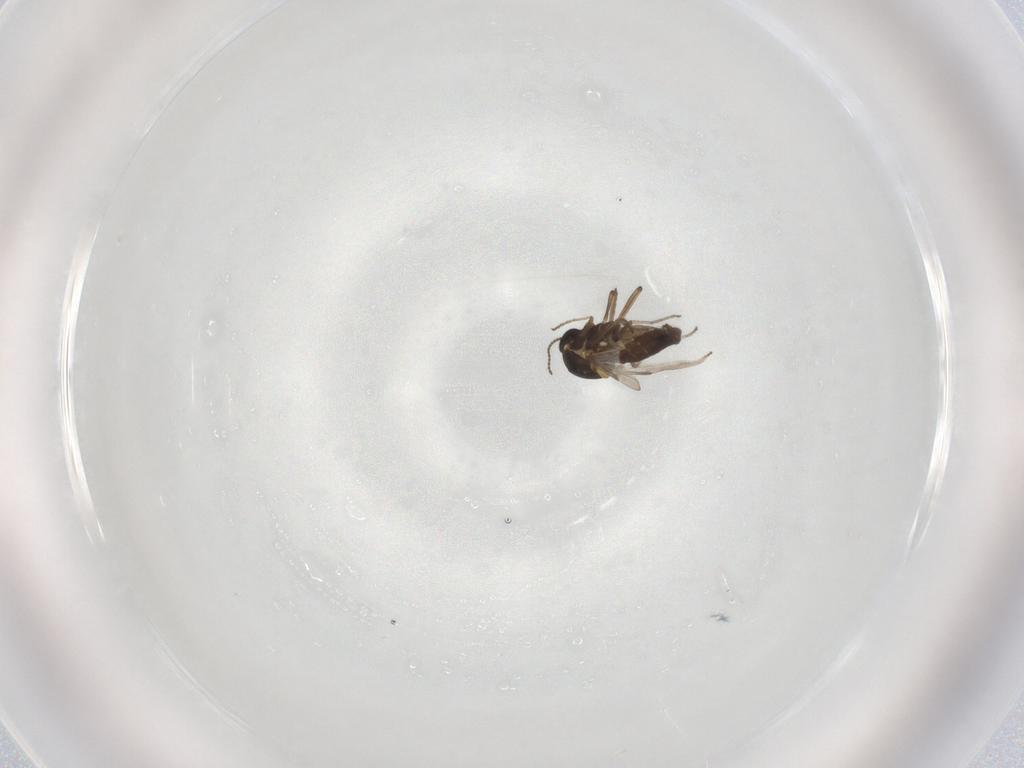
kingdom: Animalia
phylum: Arthropoda
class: Insecta
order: Diptera
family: Ceratopogonidae
